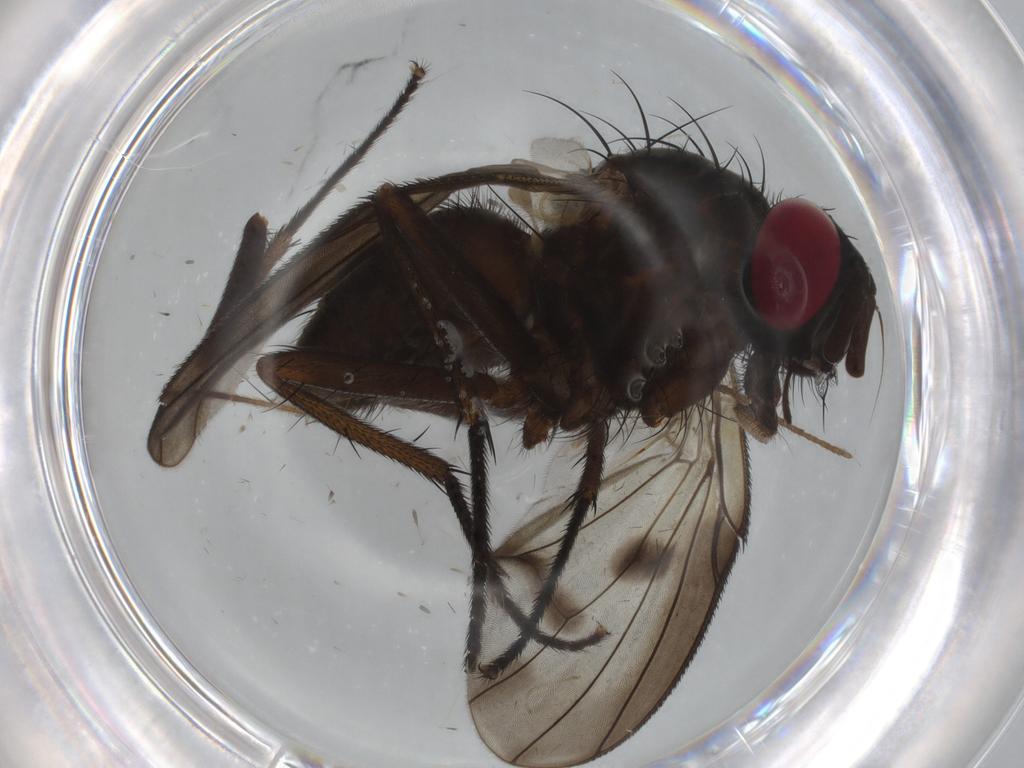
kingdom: Animalia
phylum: Arthropoda
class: Insecta
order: Diptera
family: Muscidae
